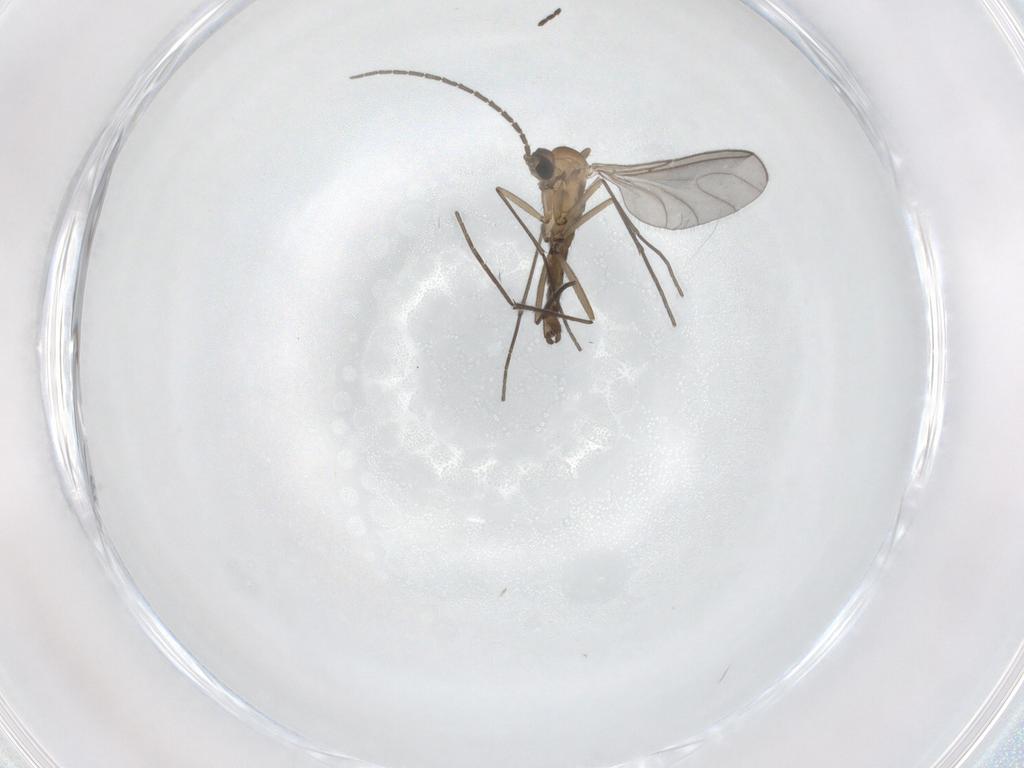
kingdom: Animalia
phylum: Arthropoda
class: Insecta
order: Diptera
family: Sciaridae
